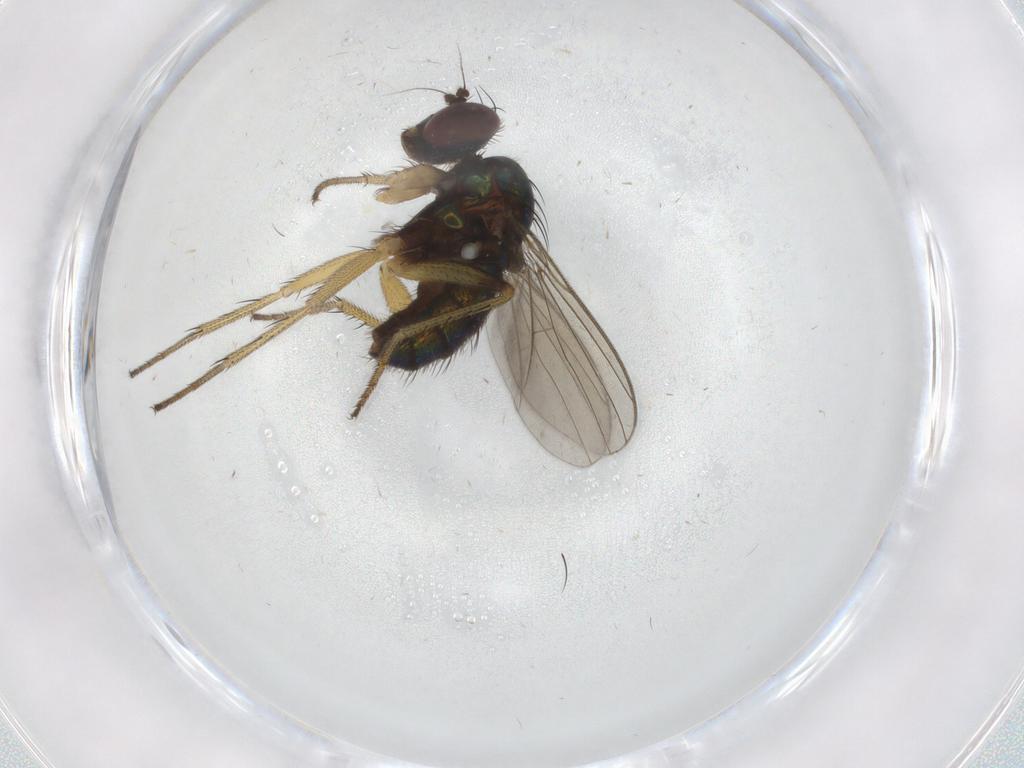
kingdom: Animalia
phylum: Arthropoda
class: Insecta
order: Diptera
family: Dolichopodidae
